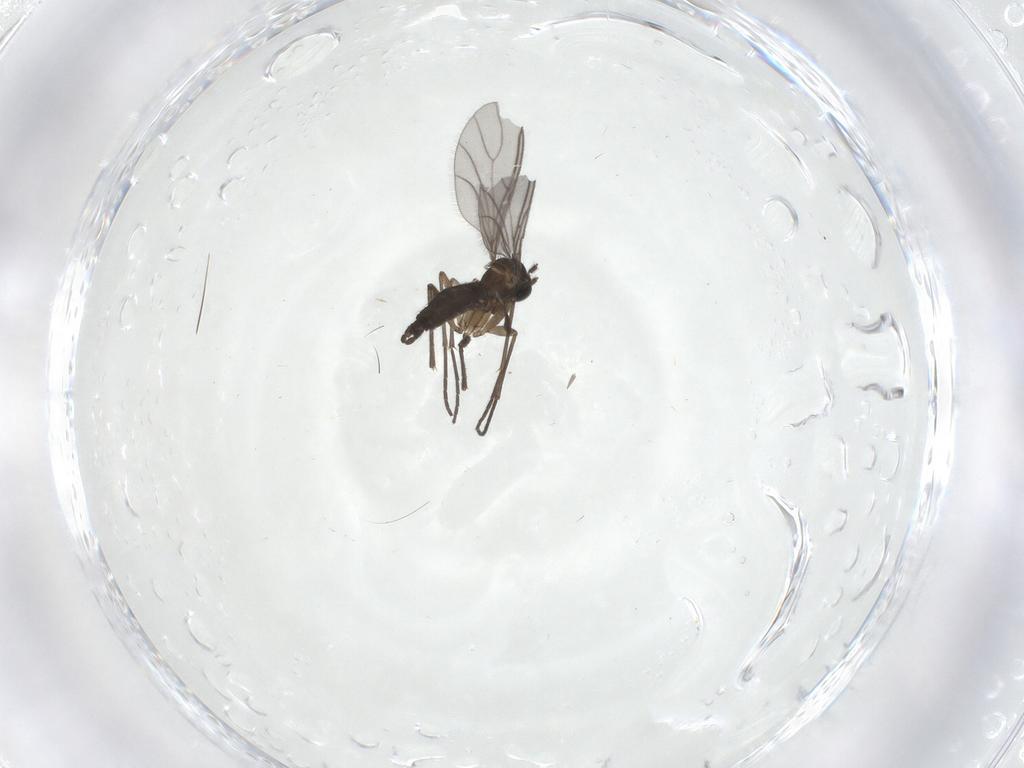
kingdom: Animalia
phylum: Arthropoda
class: Insecta
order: Diptera
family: Sciaridae
